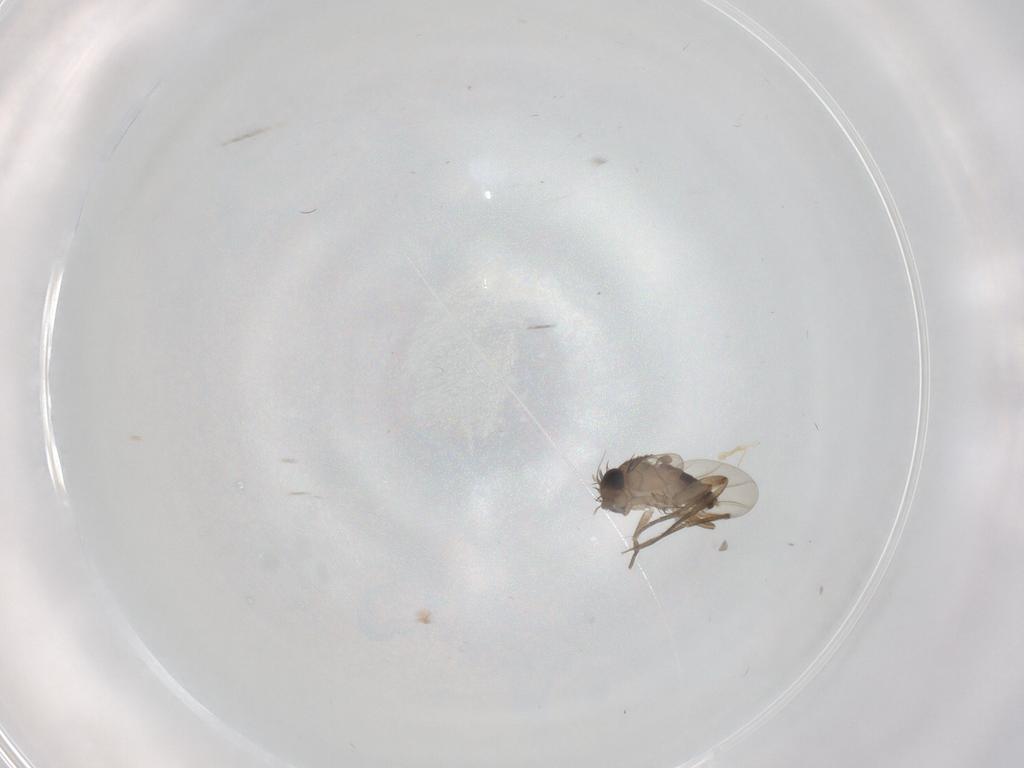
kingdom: Animalia
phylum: Arthropoda
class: Insecta
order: Diptera
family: Phoridae
